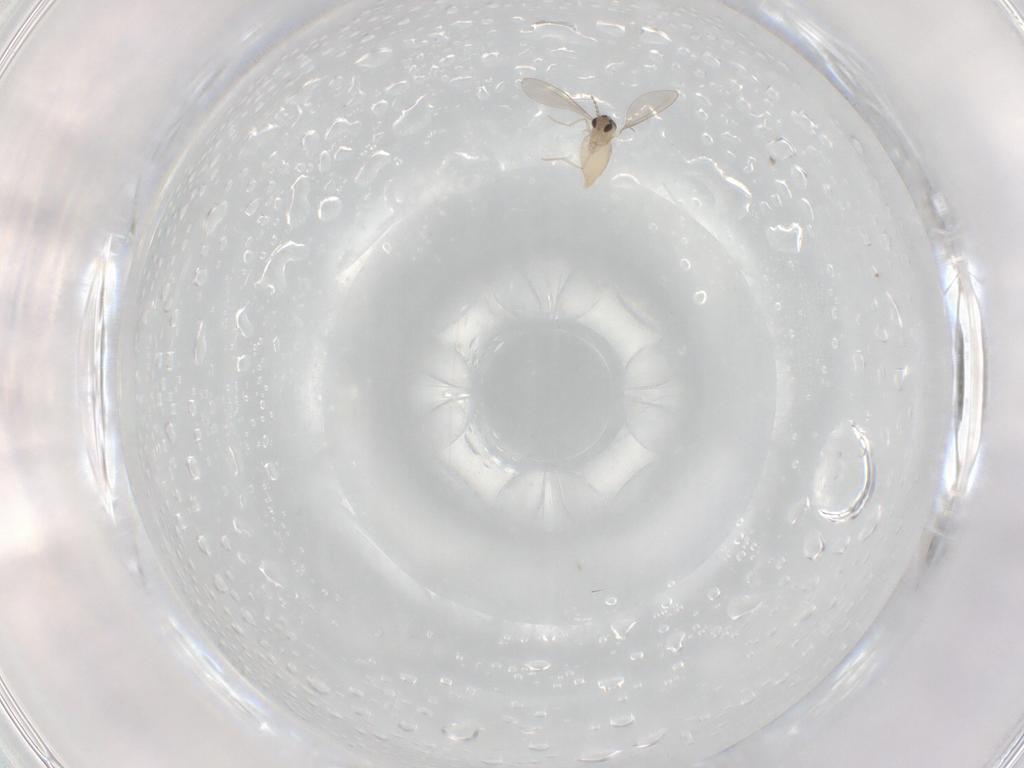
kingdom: Animalia
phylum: Arthropoda
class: Insecta
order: Diptera
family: Cecidomyiidae
